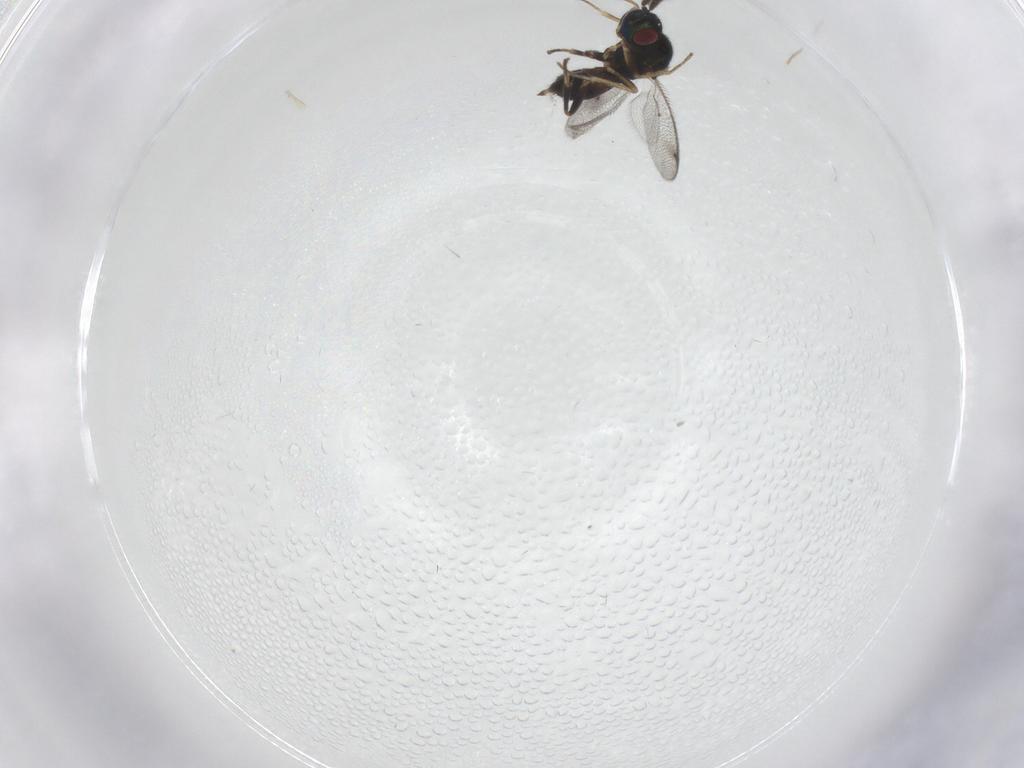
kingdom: Animalia
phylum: Arthropoda
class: Insecta
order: Diptera
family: Psychodidae
